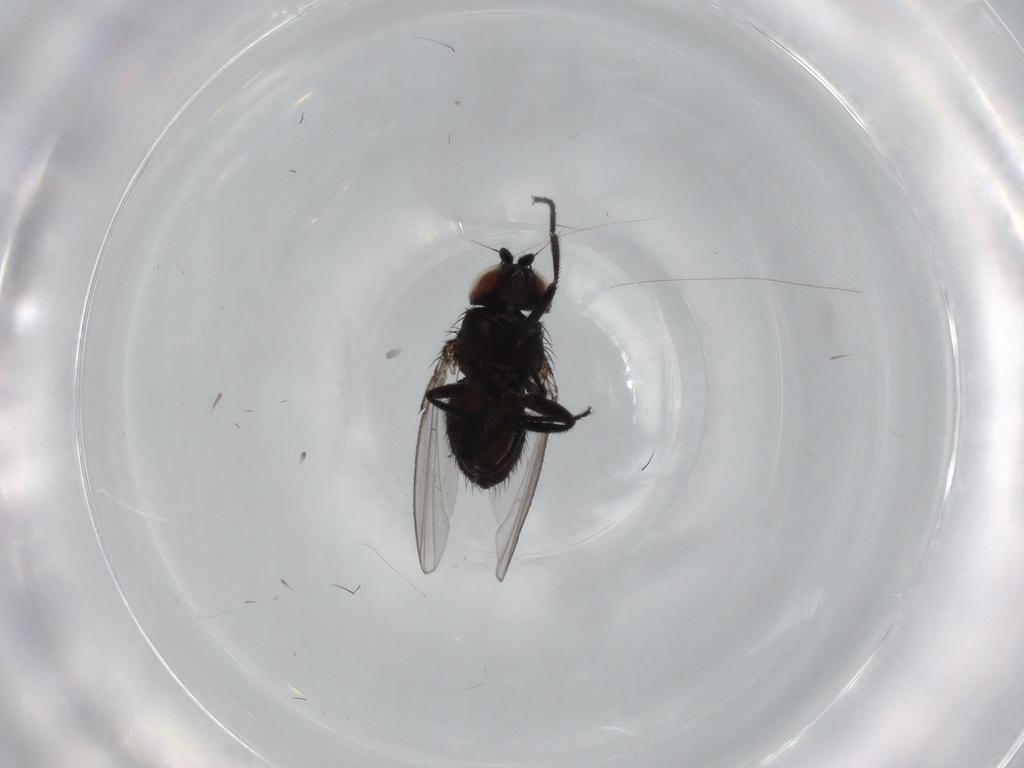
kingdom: Animalia
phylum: Arthropoda
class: Insecta
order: Diptera
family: Milichiidae
